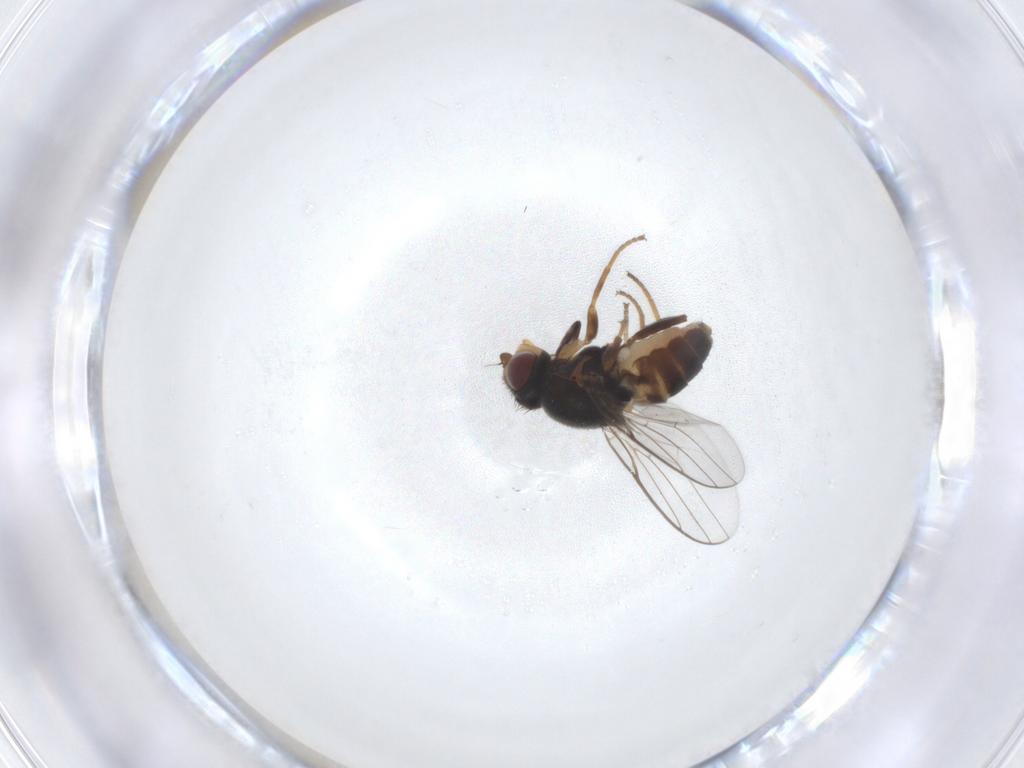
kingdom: Animalia
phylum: Arthropoda
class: Insecta
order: Diptera
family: Chloropidae
